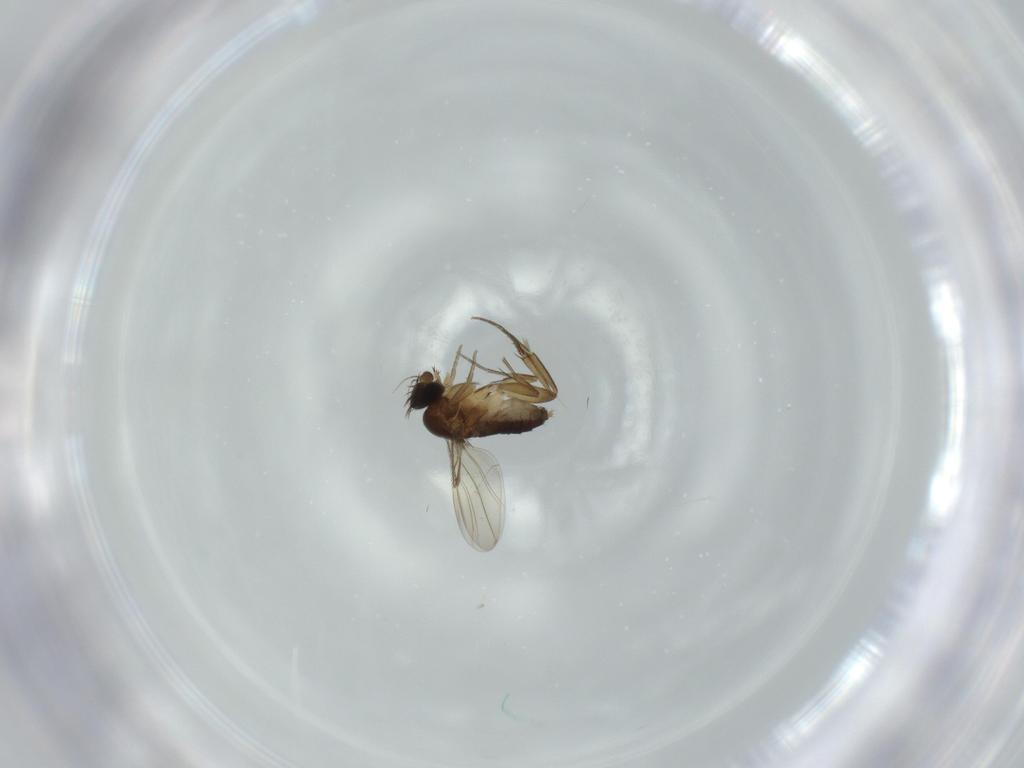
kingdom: Animalia
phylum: Arthropoda
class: Insecta
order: Diptera
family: Phoridae
